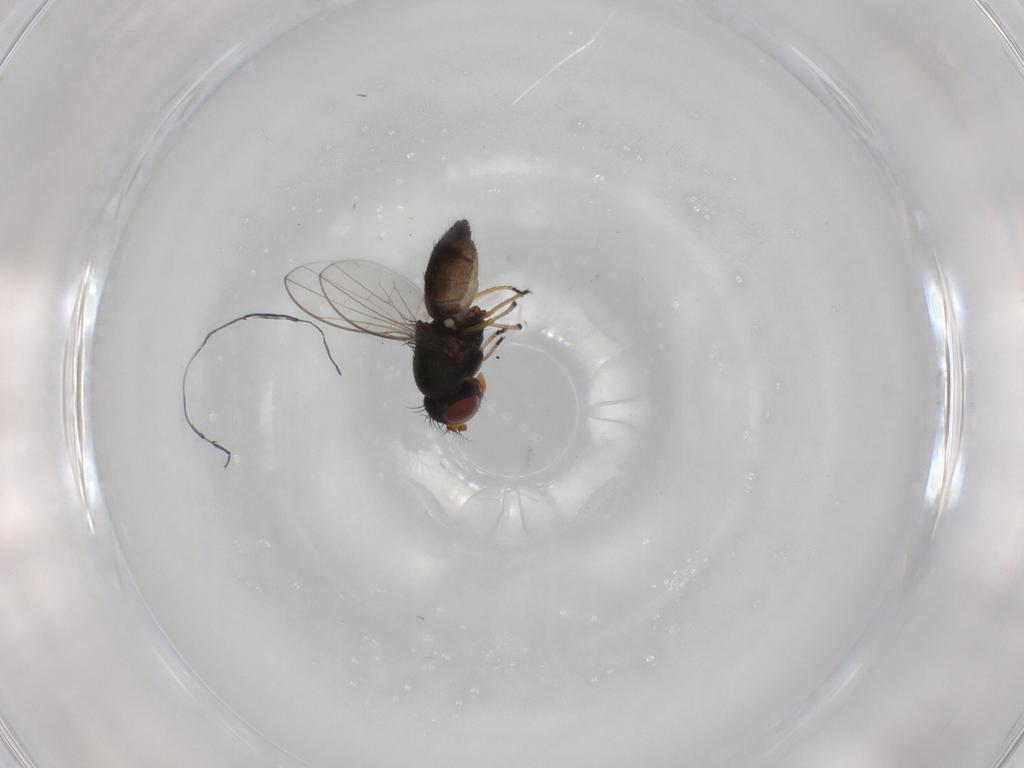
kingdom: Animalia
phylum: Arthropoda
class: Insecta
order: Diptera
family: Ephydridae
